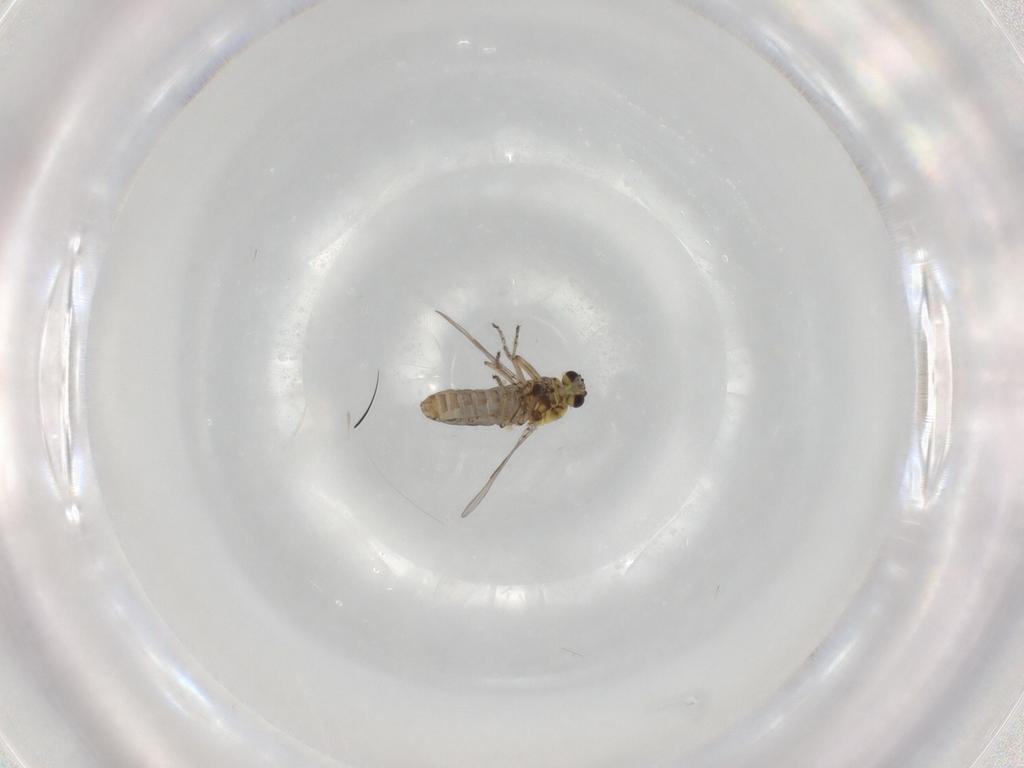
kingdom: Animalia
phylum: Arthropoda
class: Insecta
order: Diptera
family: Ceratopogonidae
